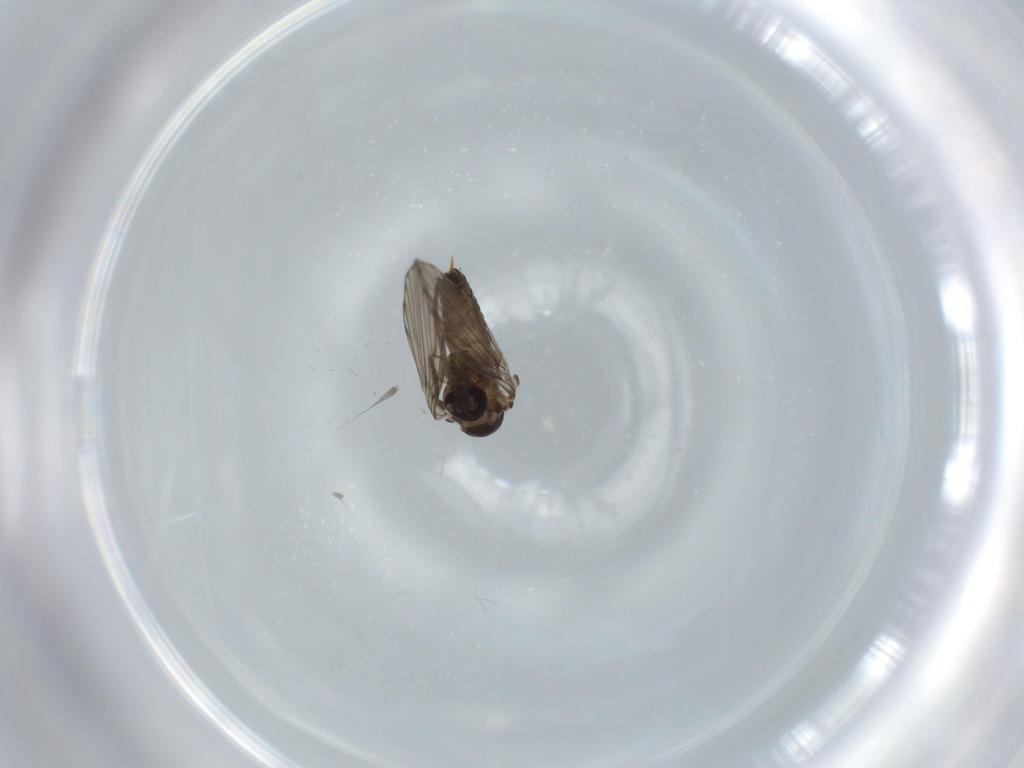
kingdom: Animalia
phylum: Arthropoda
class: Insecta
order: Diptera
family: Psychodidae
